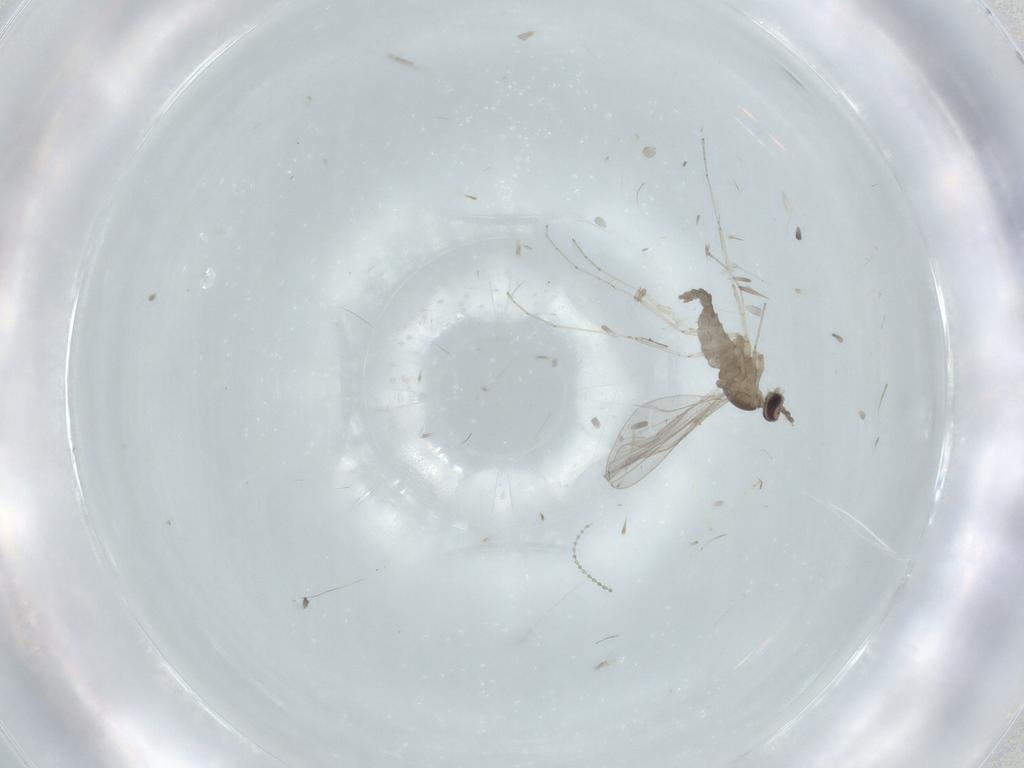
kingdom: Animalia
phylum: Arthropoda
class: Insecta
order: Diptera
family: Cecidomyiidae
